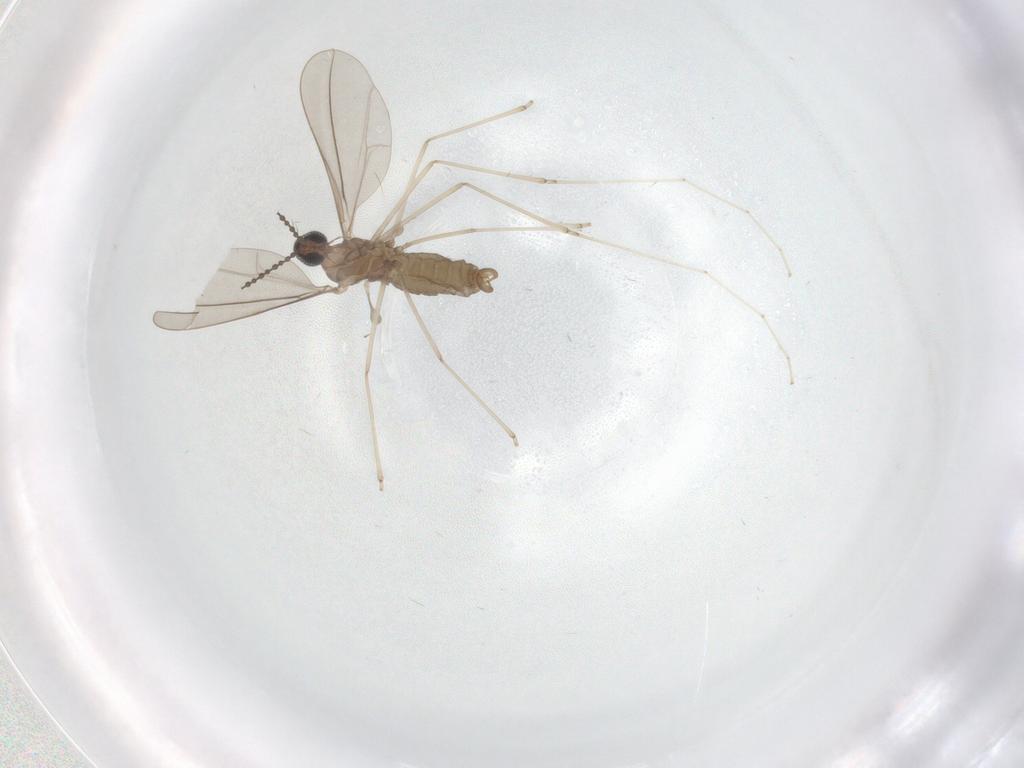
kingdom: Animalia
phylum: Arthropoda
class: Insecta
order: Diptera
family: Cecidomyiidae
